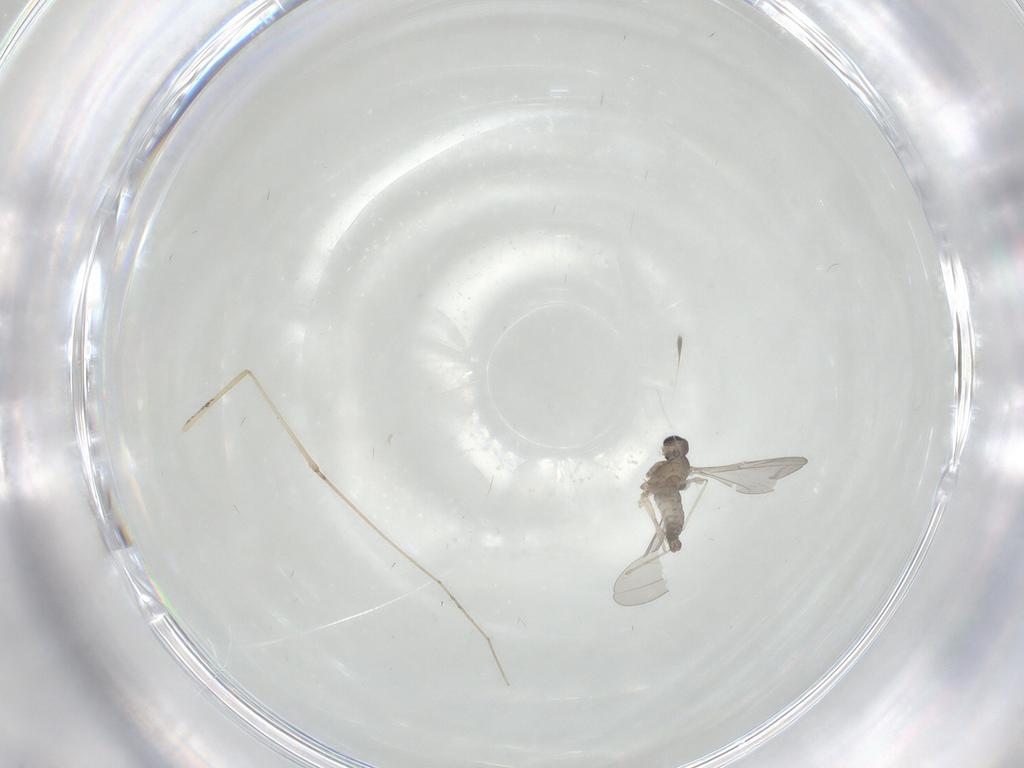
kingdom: Animalia
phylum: Arthropoda
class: Insecta
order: Diptera
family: Cecidomyiidae
